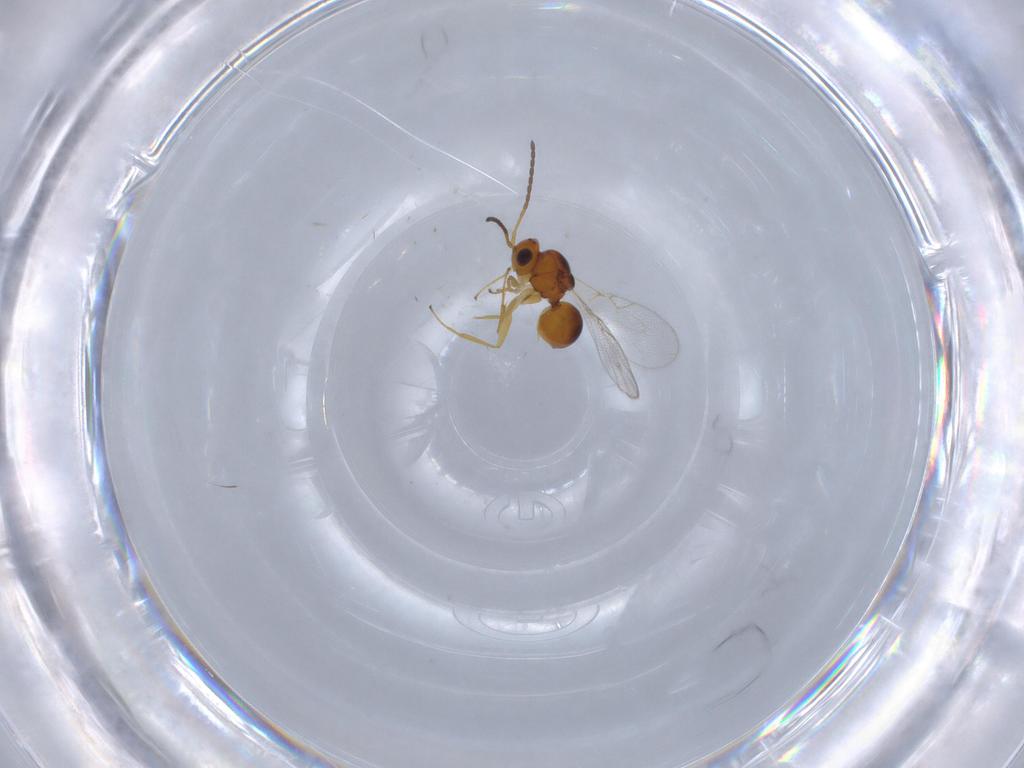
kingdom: Animalia
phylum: Arthropoda
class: Insecta
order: Hymenoptera
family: Figitidae
